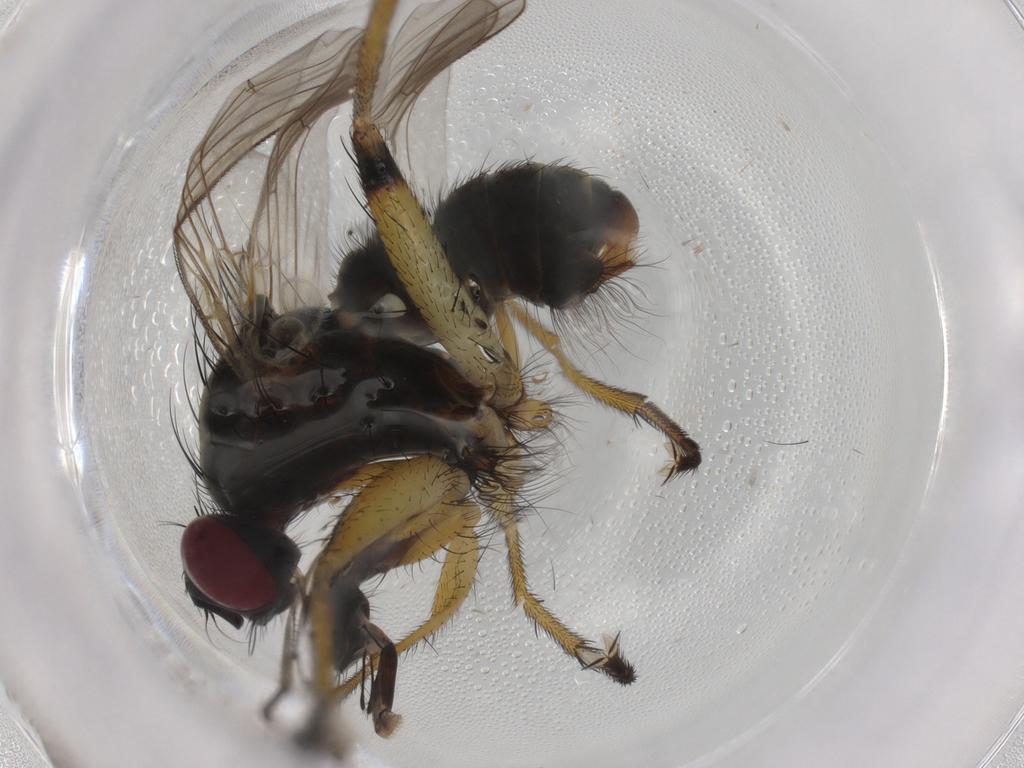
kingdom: Animalia
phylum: Arthropoda
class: Insecta
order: Diptera
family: Muscidae
